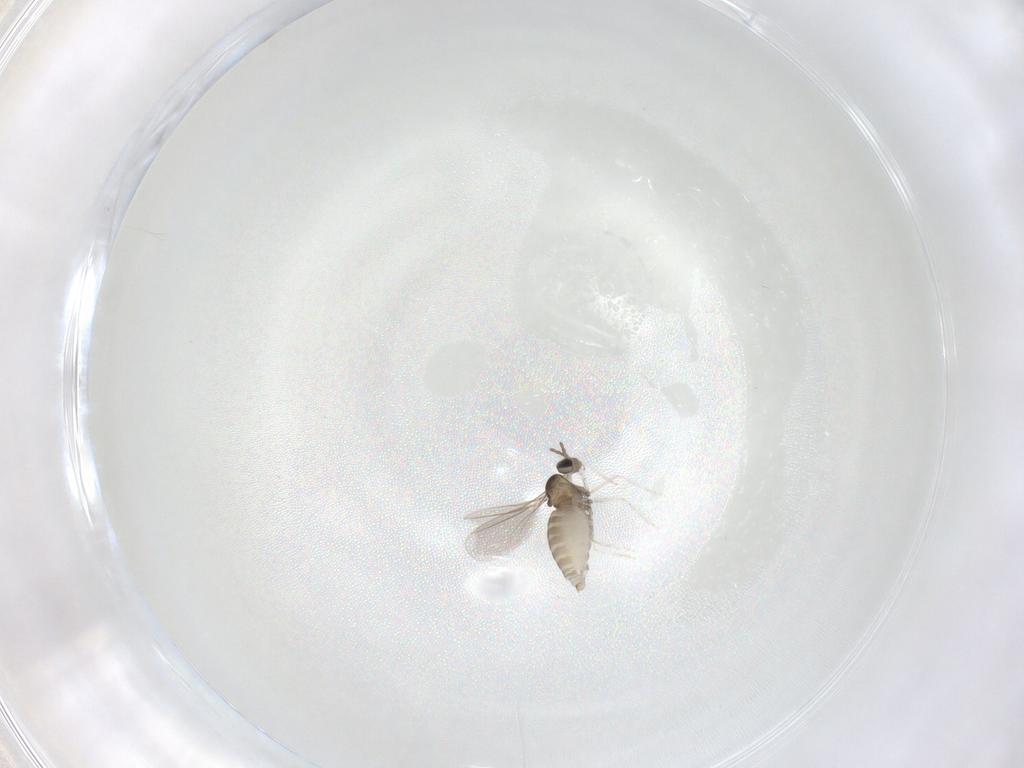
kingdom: Animalia
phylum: Arthropoda
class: Insecta
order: Diptera
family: Cecidomyiidae
